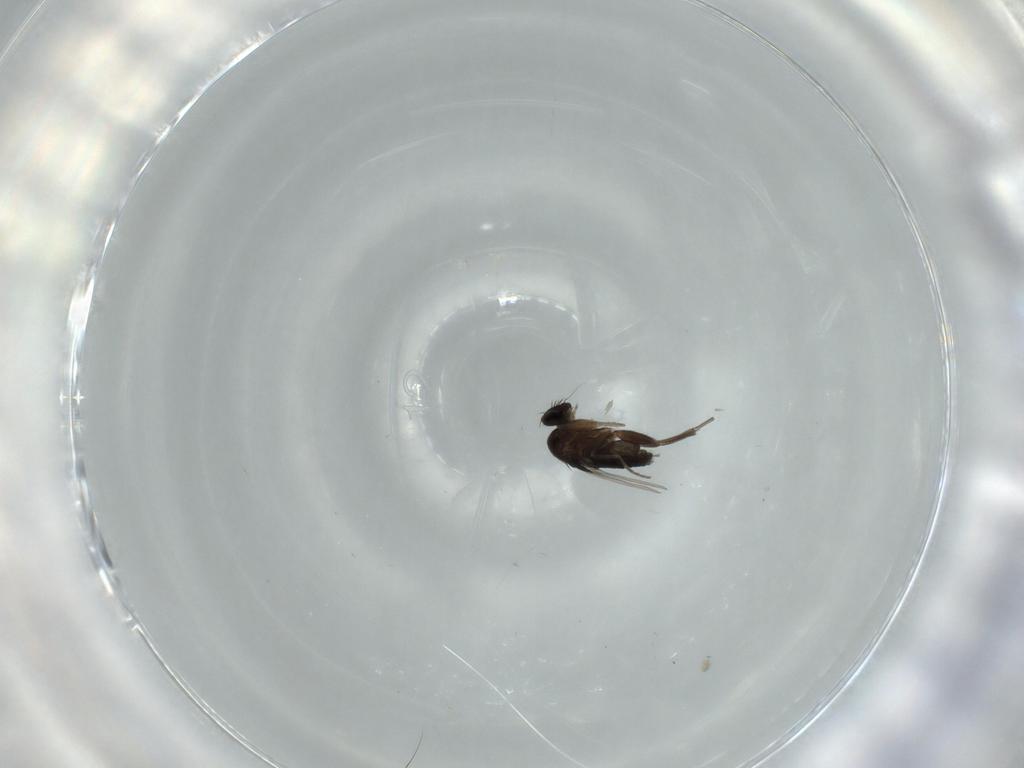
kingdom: Animalia
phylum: Arthropoda
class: Insecta
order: Diptera
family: Phoridae
